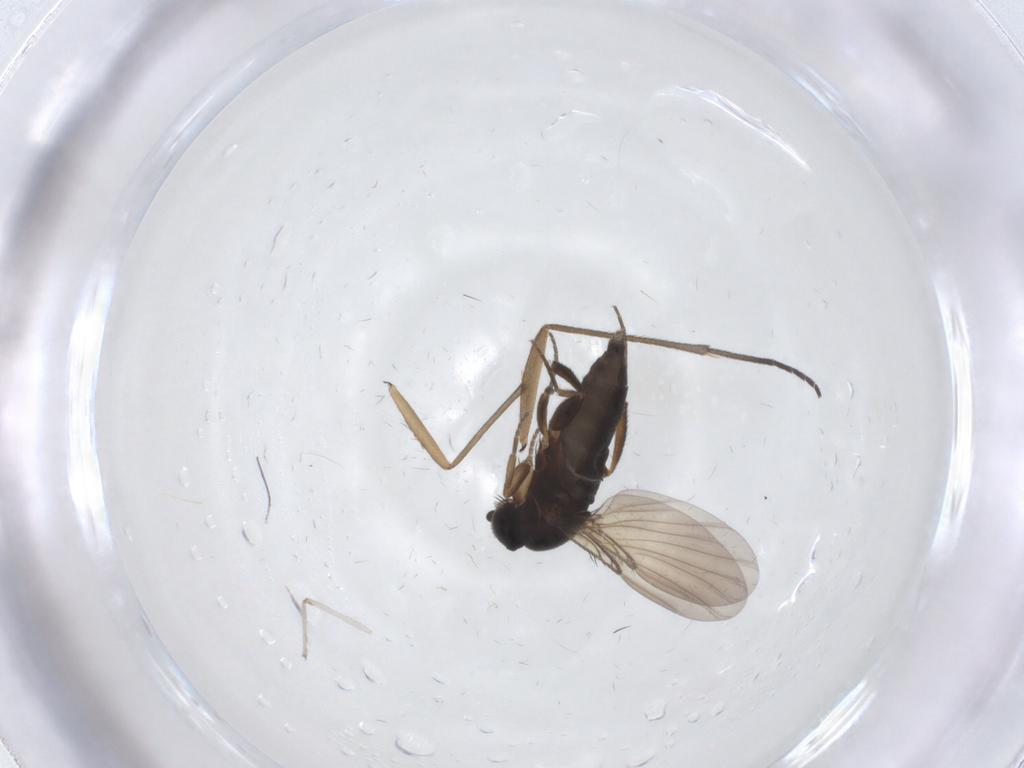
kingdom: Animalia
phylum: Arthropoda
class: Insecta
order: Diptera
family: Phoridae
